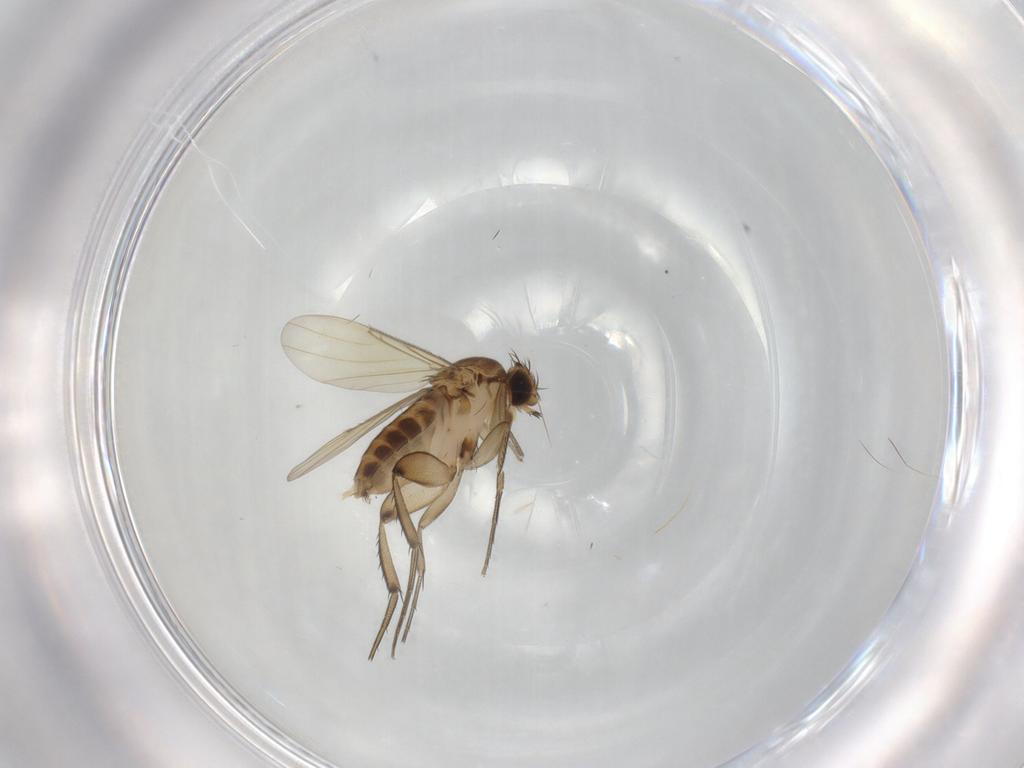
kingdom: Animalia
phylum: Arthropoda
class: Insecta
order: Diptera
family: Phoridae
